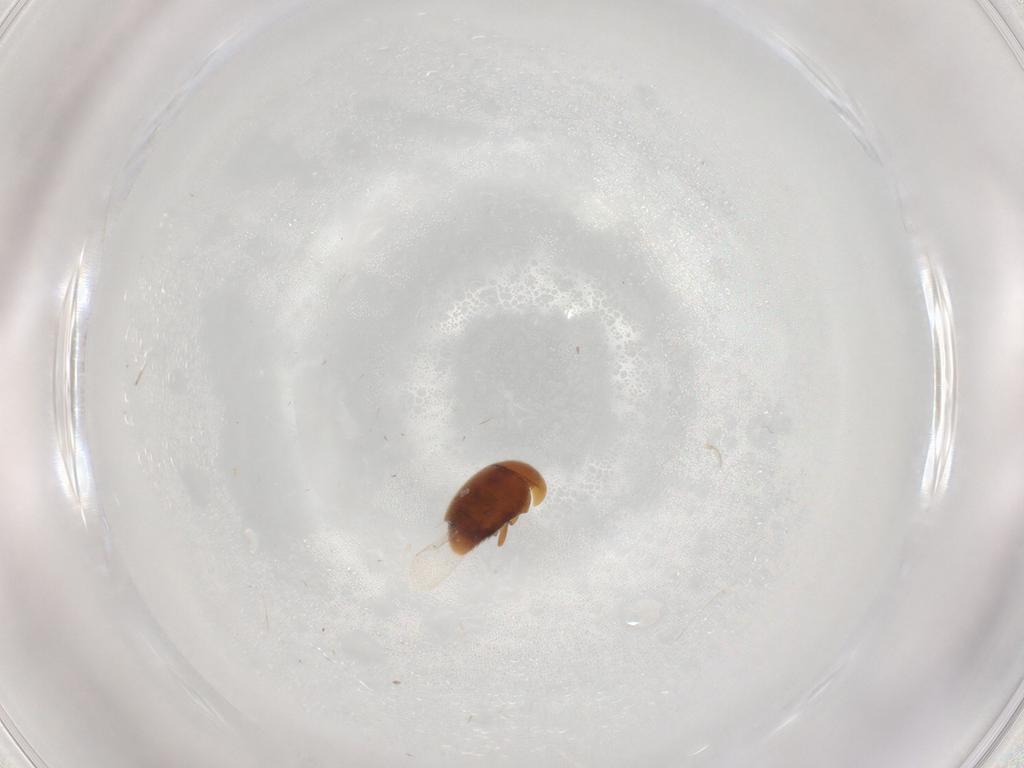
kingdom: Animalia
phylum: Arthropoda
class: Insecta
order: Coleoptera
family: Corylophidae
